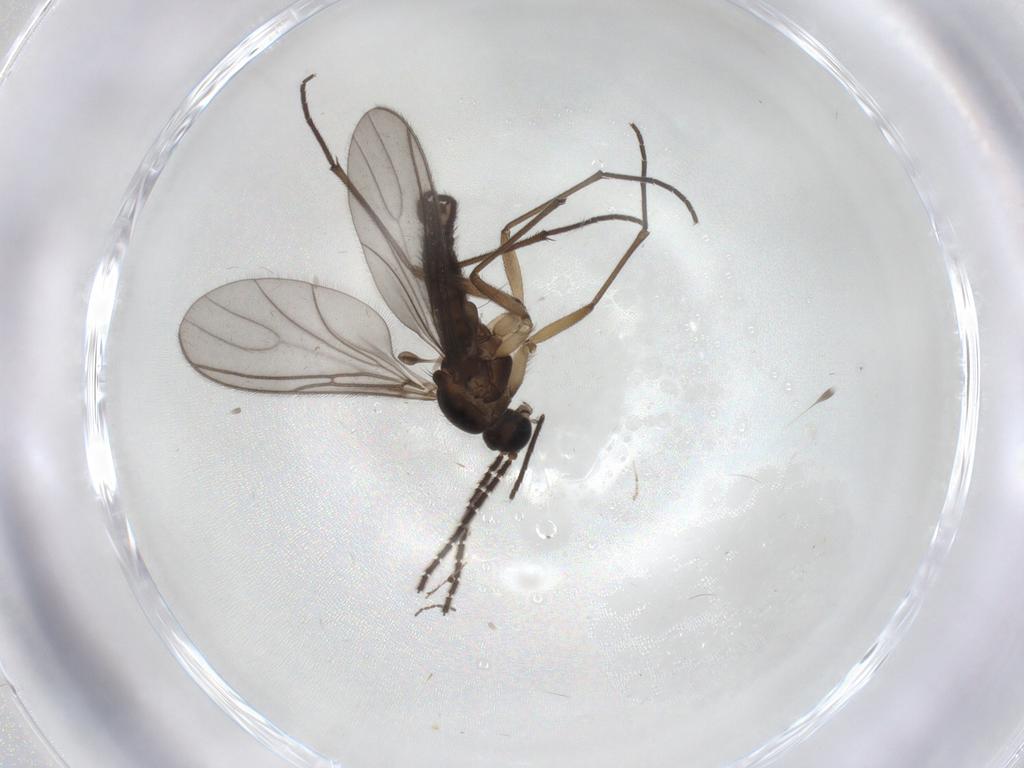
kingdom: Animalia
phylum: Arthropoda
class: Insecta
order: Diptera
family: Sciaridae
